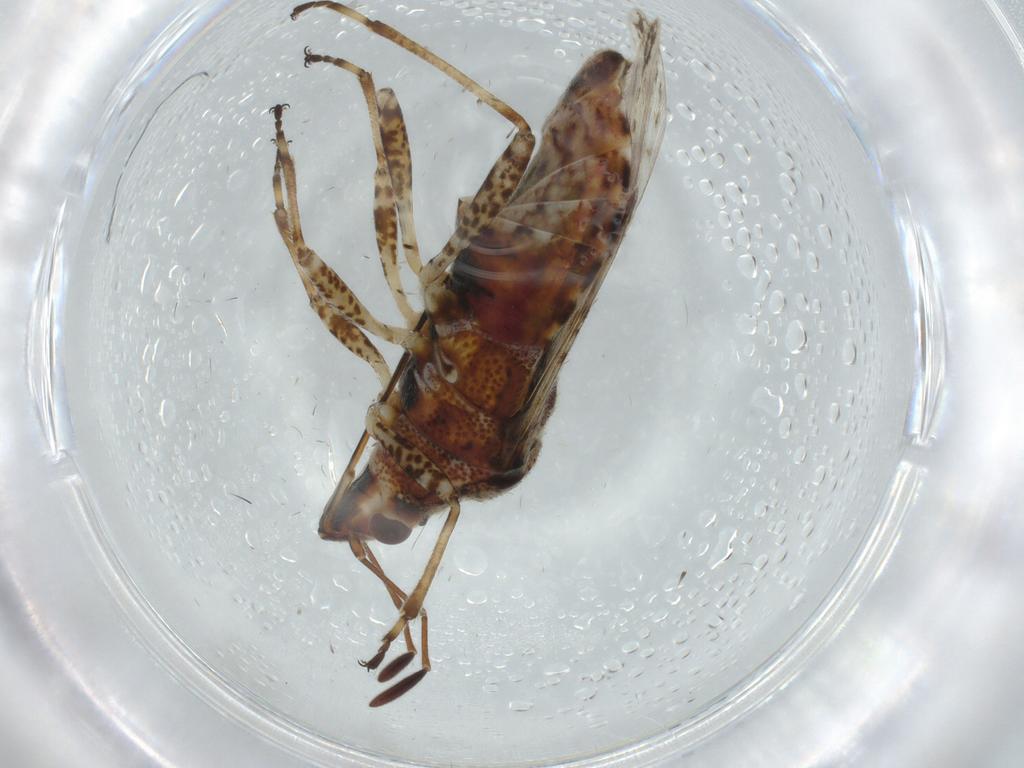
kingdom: Animalia
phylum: Arthropoda
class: Insecta
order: Hemiptera
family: Lygaeidae
